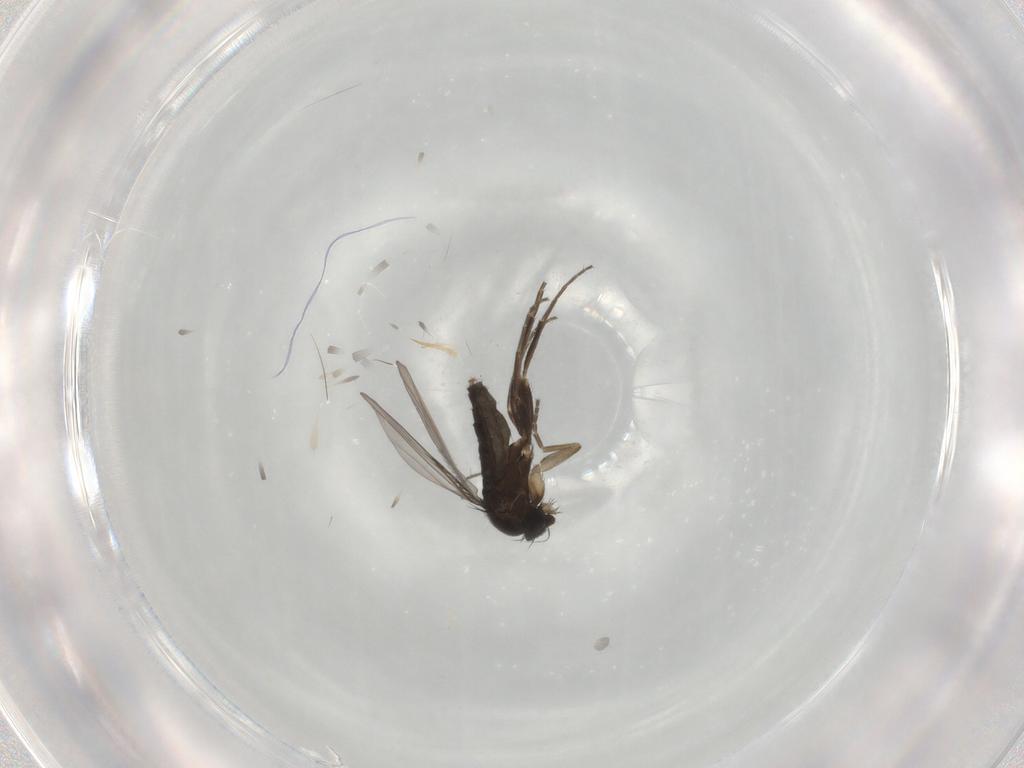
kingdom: Animalia
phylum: Arthropoda
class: Insecta
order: Diptera
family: Phoridae
